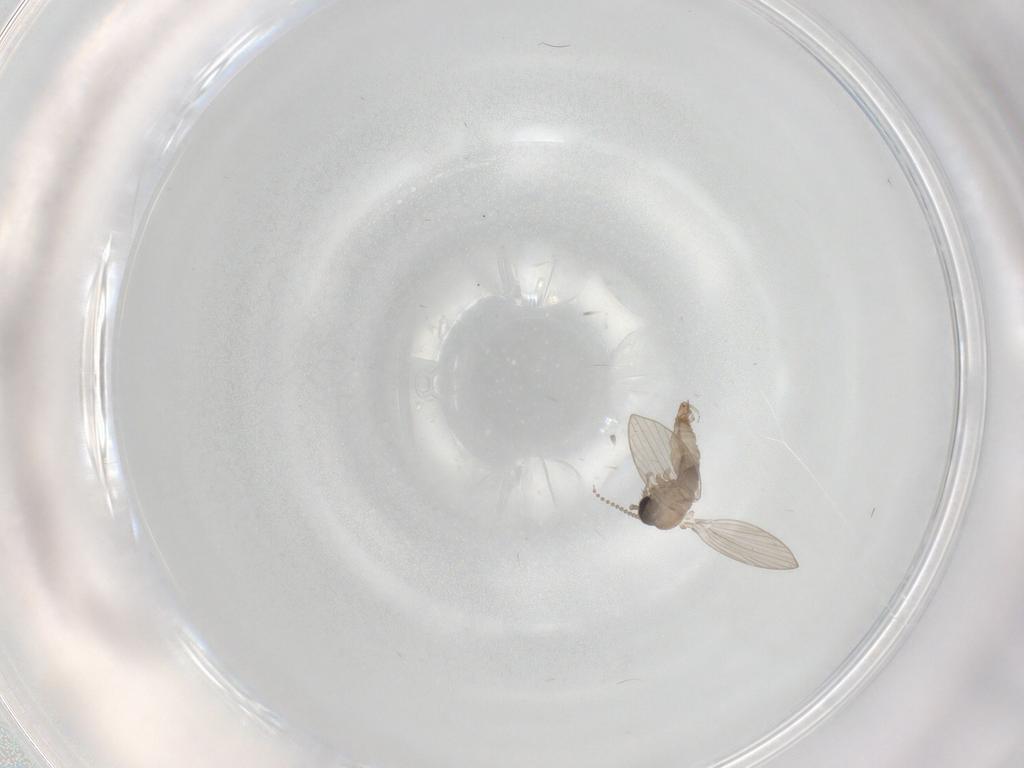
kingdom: Animalia
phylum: Arthropoda
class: Insecta
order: Diptera
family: Psychodidae
